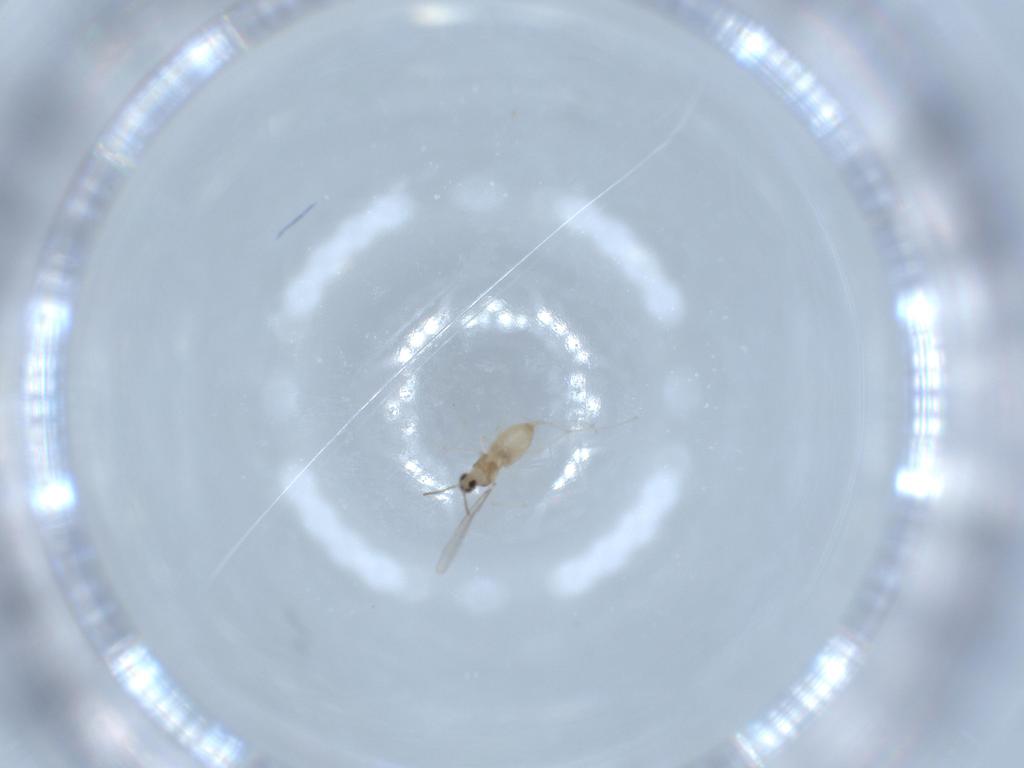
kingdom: Animalia
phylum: Arthropoda
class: Insecta
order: Diptera
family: Cecidomyiidae
